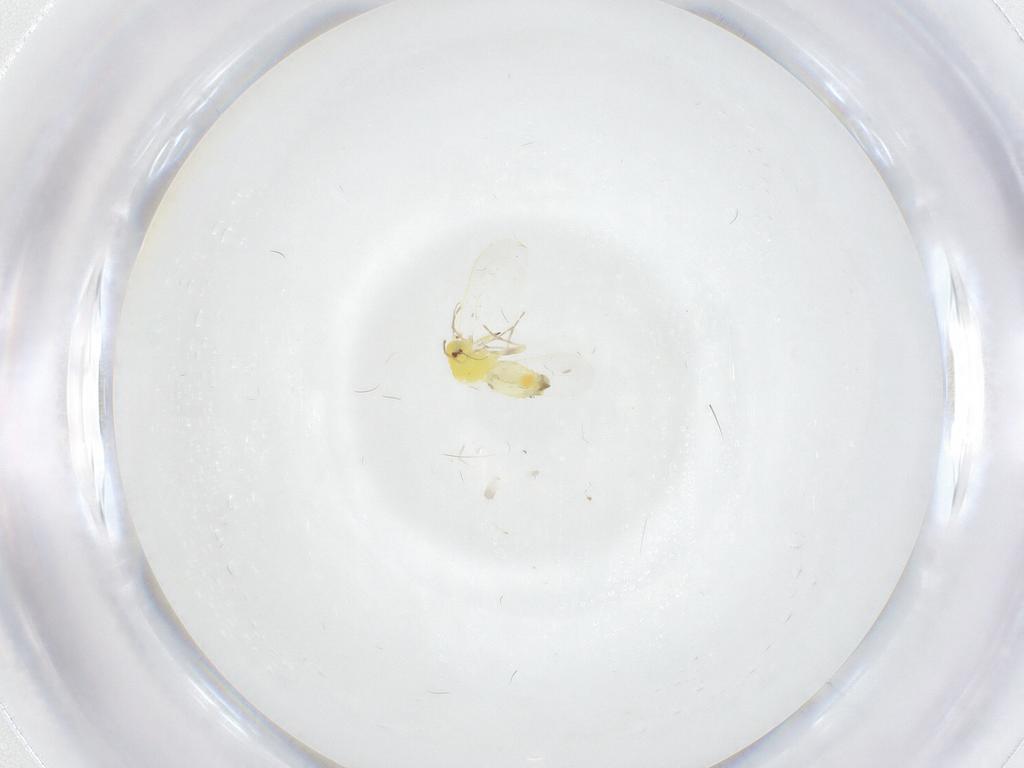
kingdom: Animalia
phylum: Arthropoda
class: Insecta
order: Hemiptera
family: Aleyrodidae
